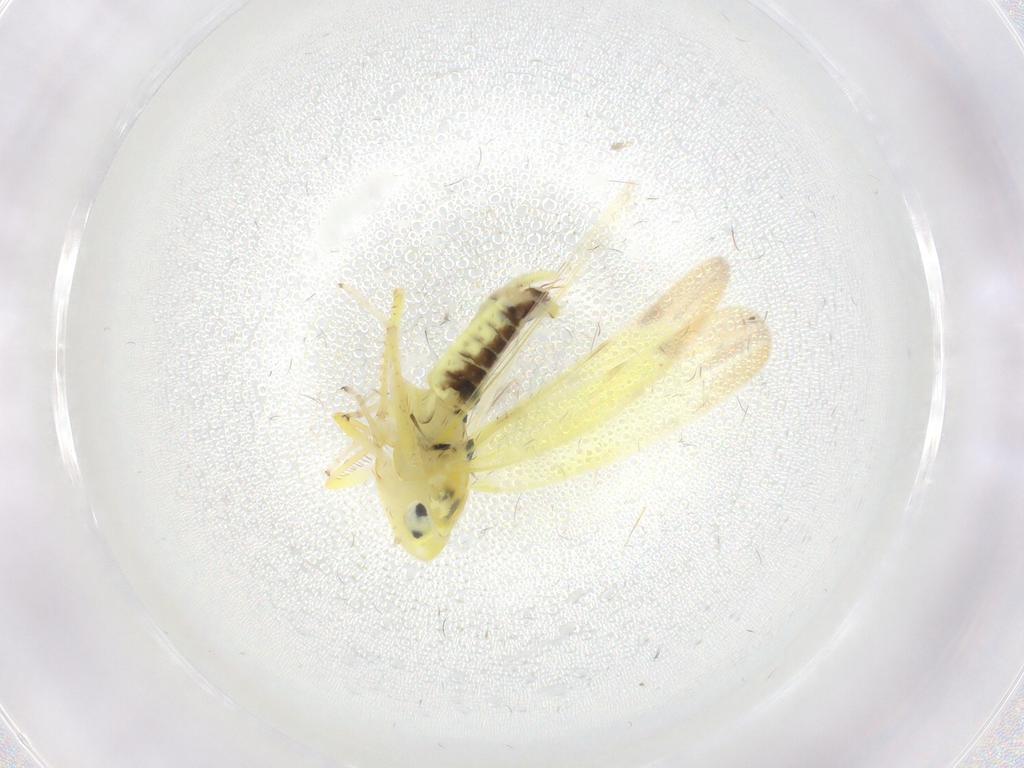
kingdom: Animalia
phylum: Arthropoda
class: Insecta
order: Hemiptera
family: Cicadellidae
